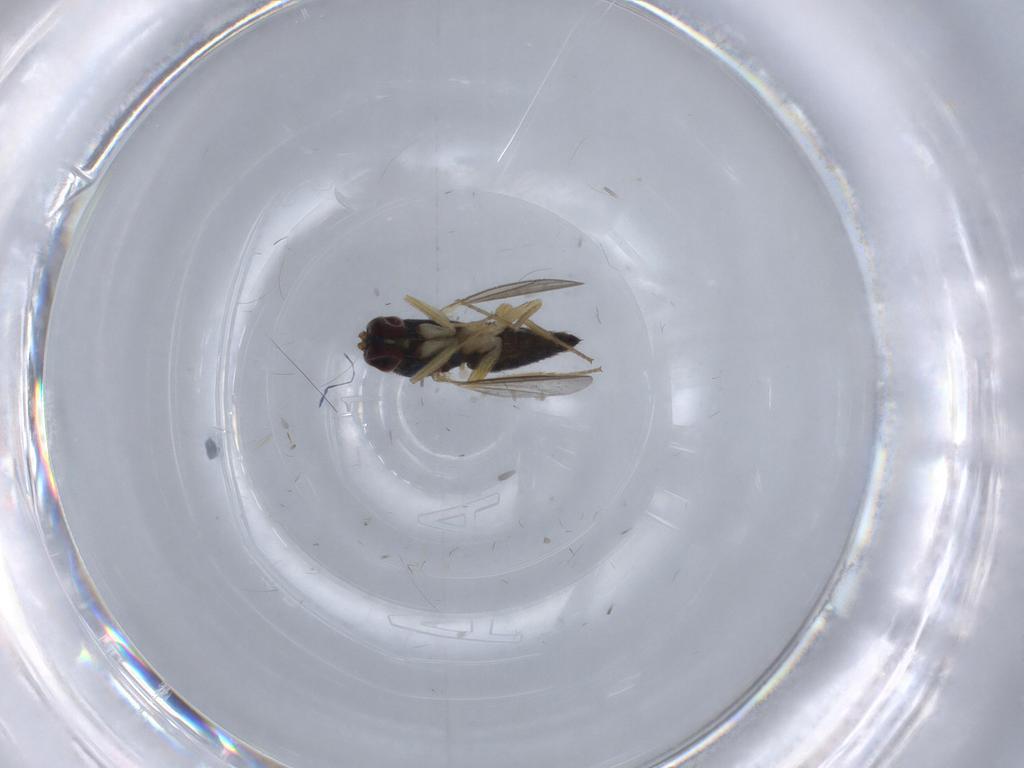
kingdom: Animalia
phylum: Arthropoda
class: Insecta
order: Diptera
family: Dolichopodidae
